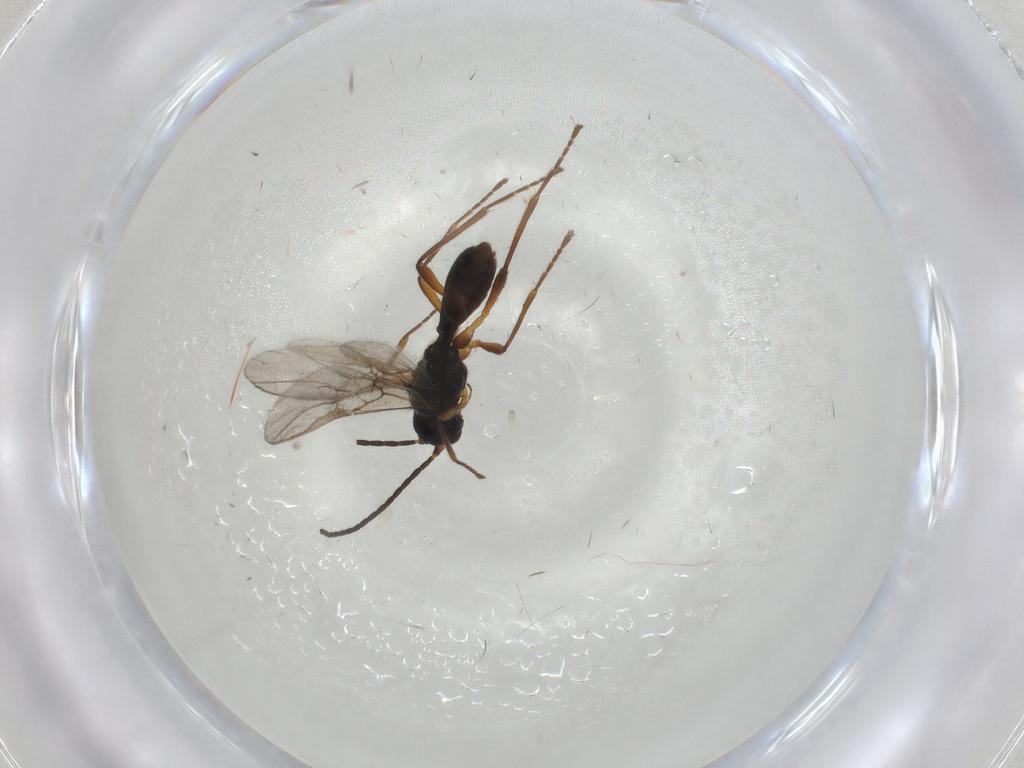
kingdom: Animalia
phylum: Arthropoda
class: Insecta
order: Hymenoptera
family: Braconidae
